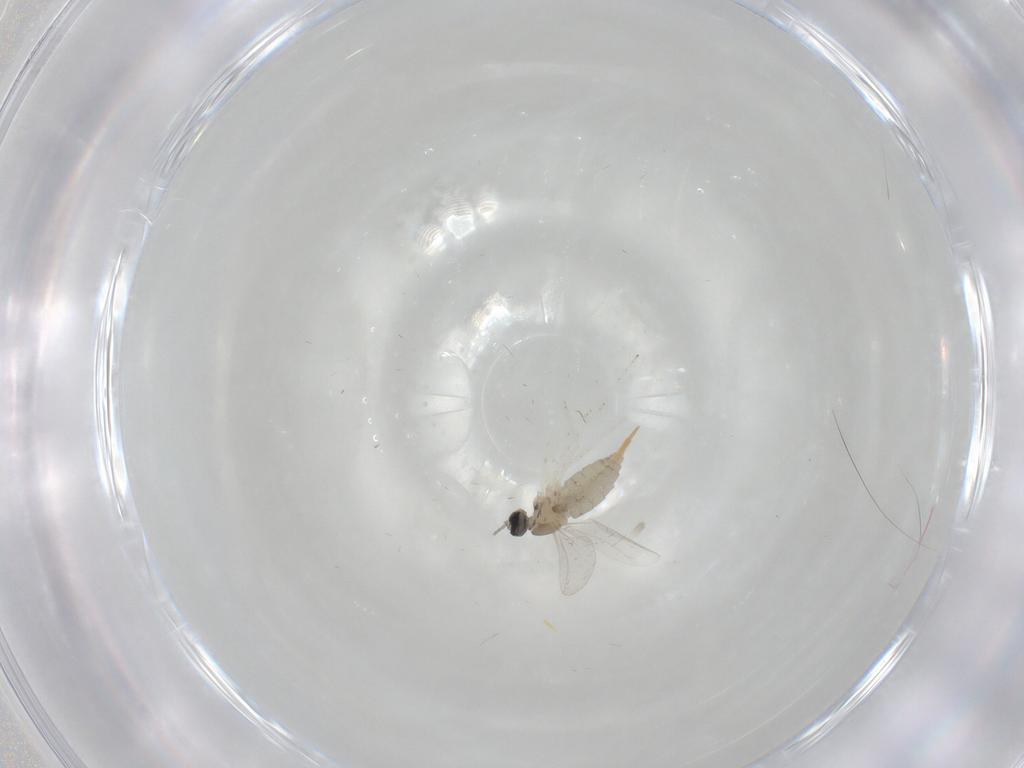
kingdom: Animalia
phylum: Arthropoda
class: Insecta
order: Diptera
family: Cecidomyiidae
